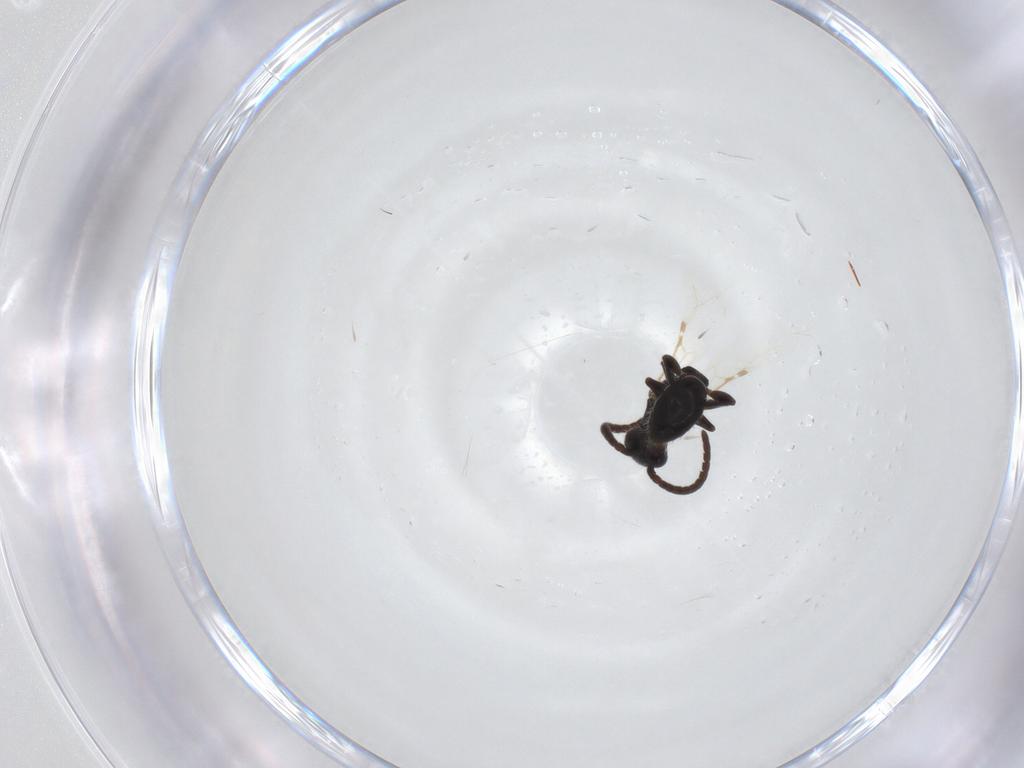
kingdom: Animalia
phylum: Arthropoda
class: Insecta
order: Hymenoptera
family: Bethylidae
